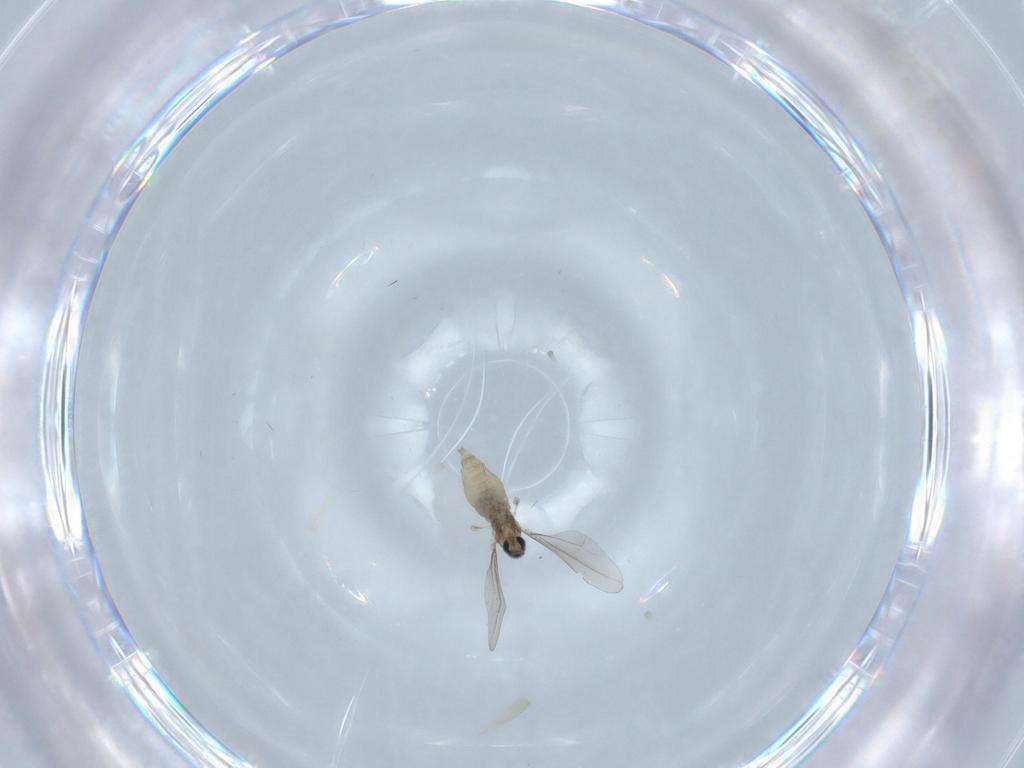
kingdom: Animalia
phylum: Arthropoda
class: Insecta
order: Diptera
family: Cecidomyiidae
